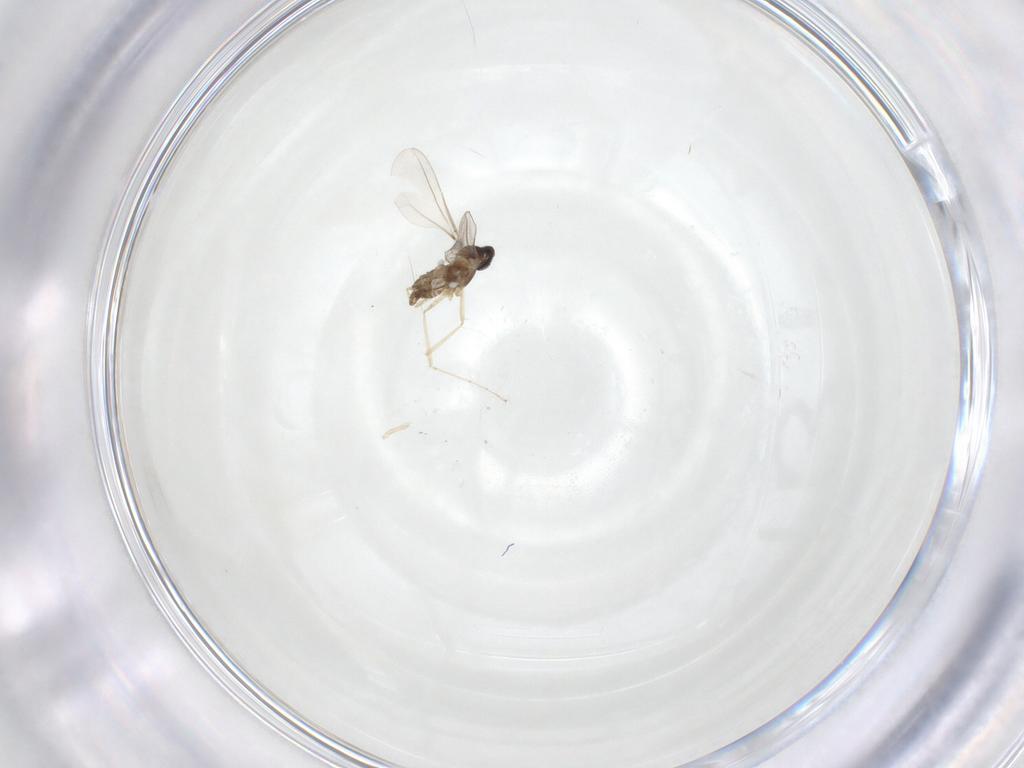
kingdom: Animalia
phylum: Arthropoda
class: Insecta
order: Diptera
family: Cecidomyiidae
